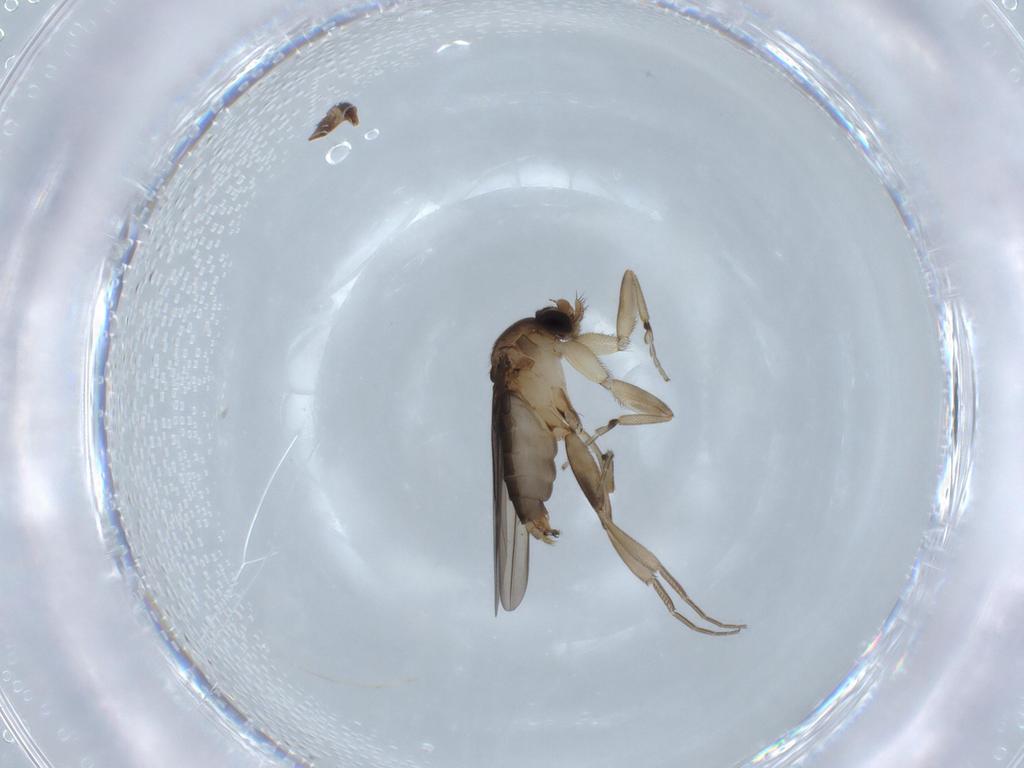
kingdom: Animalia
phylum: Arthropoda
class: Insecta
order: Diptera
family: Phoridae
